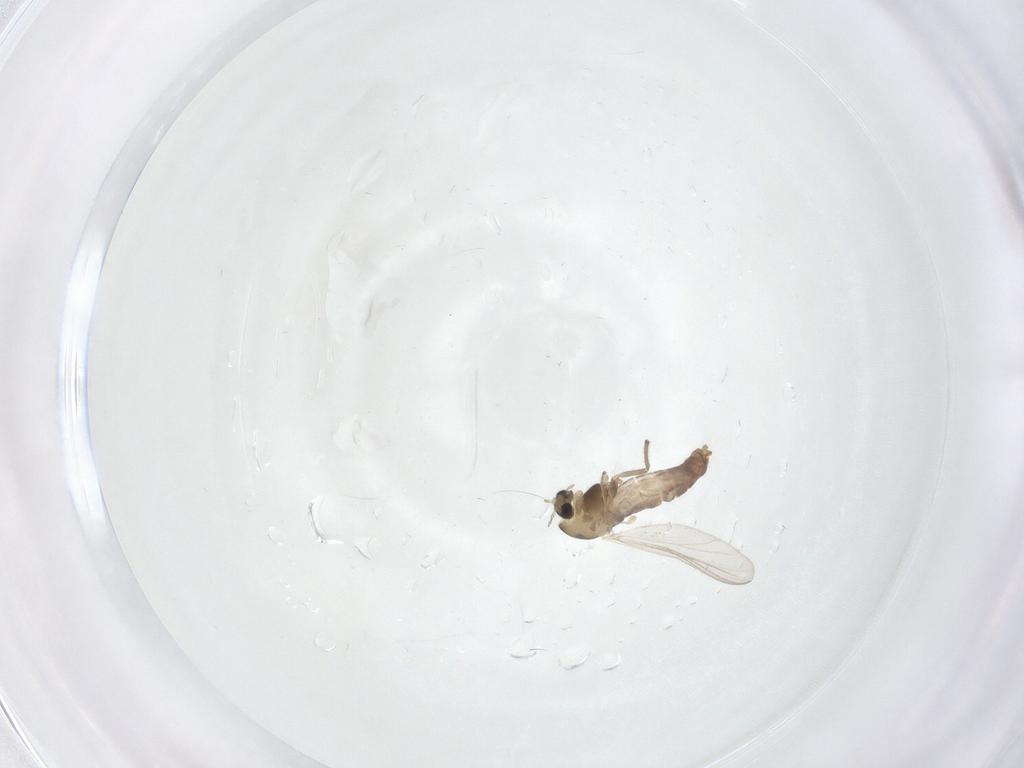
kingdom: Animalia
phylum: Arthropoda
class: Insecta
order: Diptera
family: Chironomidae
